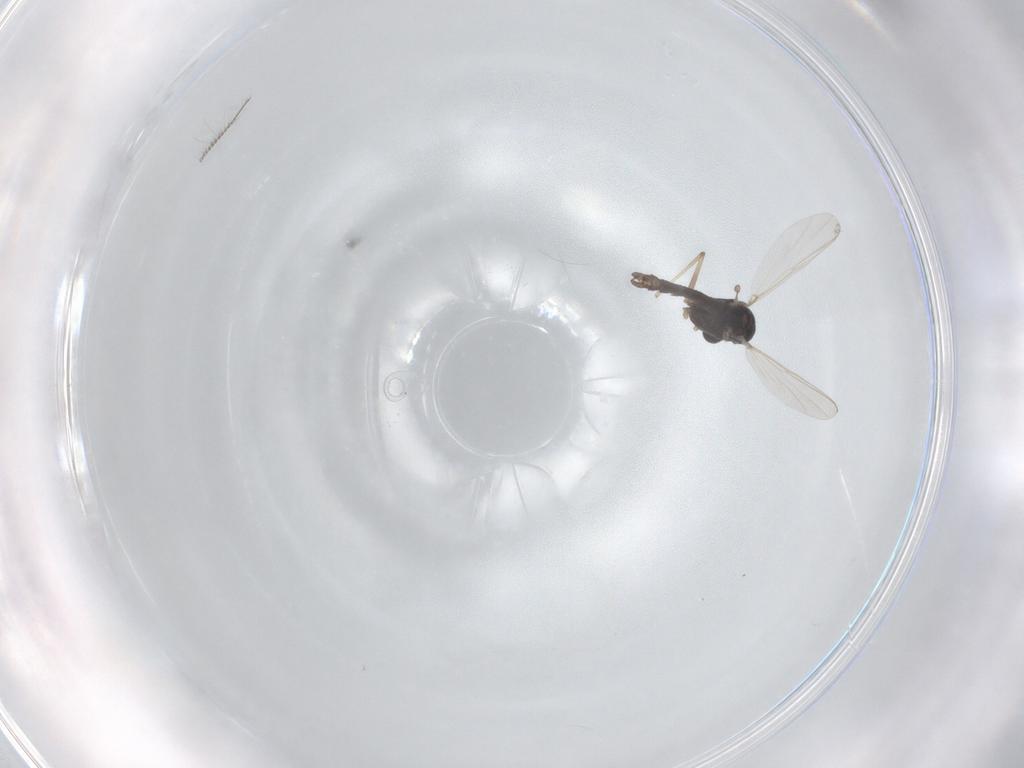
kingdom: Animalia
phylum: Arthropoda
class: Insecta
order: Diptera
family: Chironomidae
